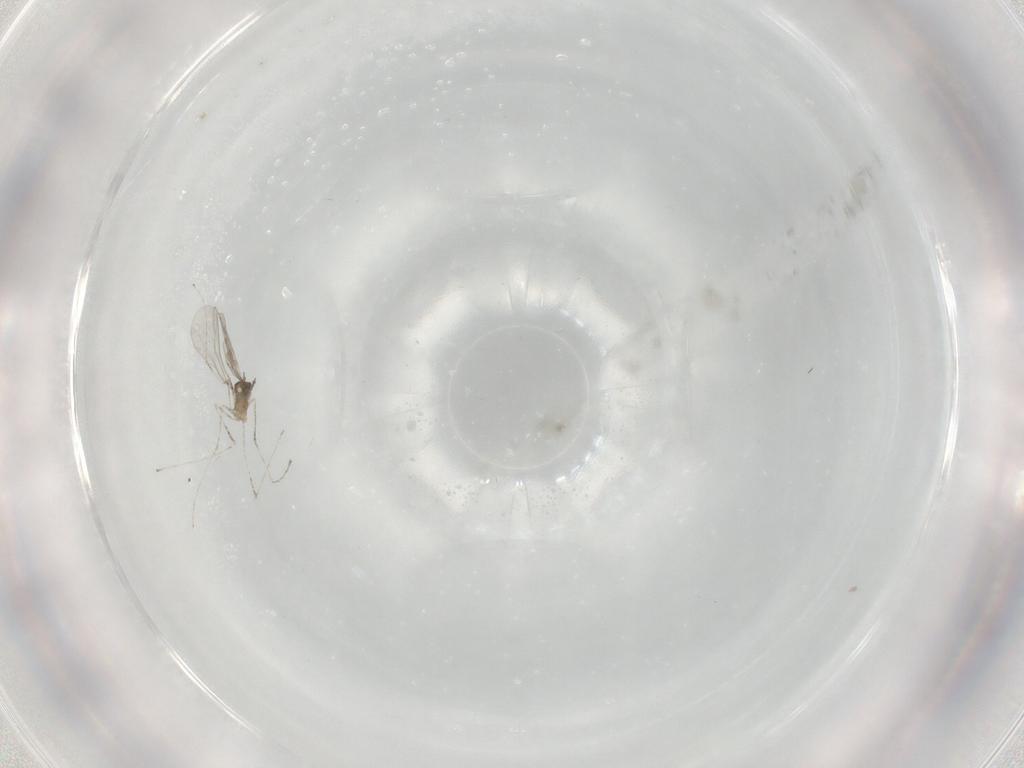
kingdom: Animalia
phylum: Arthropoda
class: Insecta
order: Diptera
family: Cecidomyiidae
